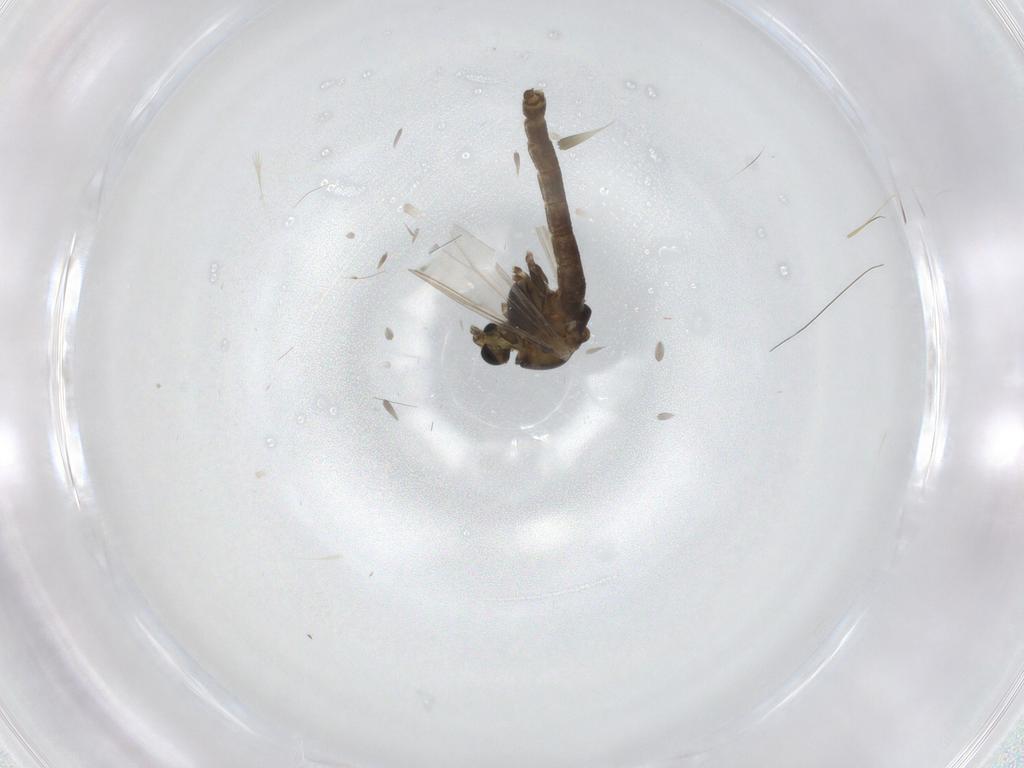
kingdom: Animalia
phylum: Arthropoda
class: Insecta
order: Diptera
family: Chironomidae
